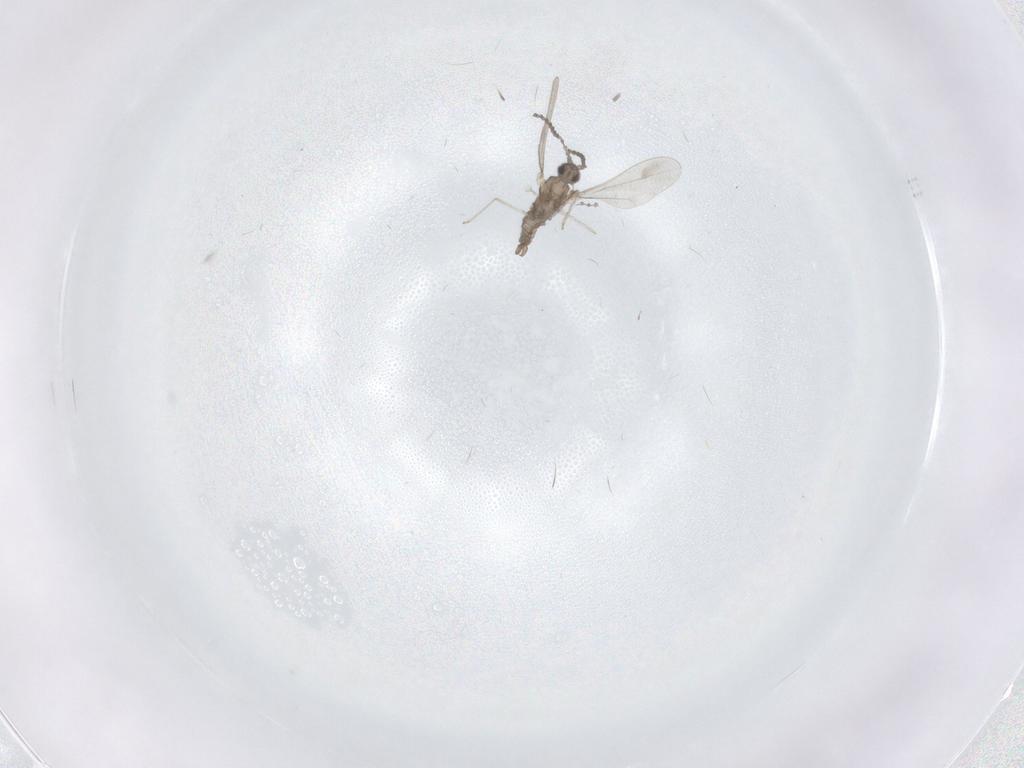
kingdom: Animalia
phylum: Arthropoda
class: Insecta
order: Diptera
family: Cecidomyiidae
